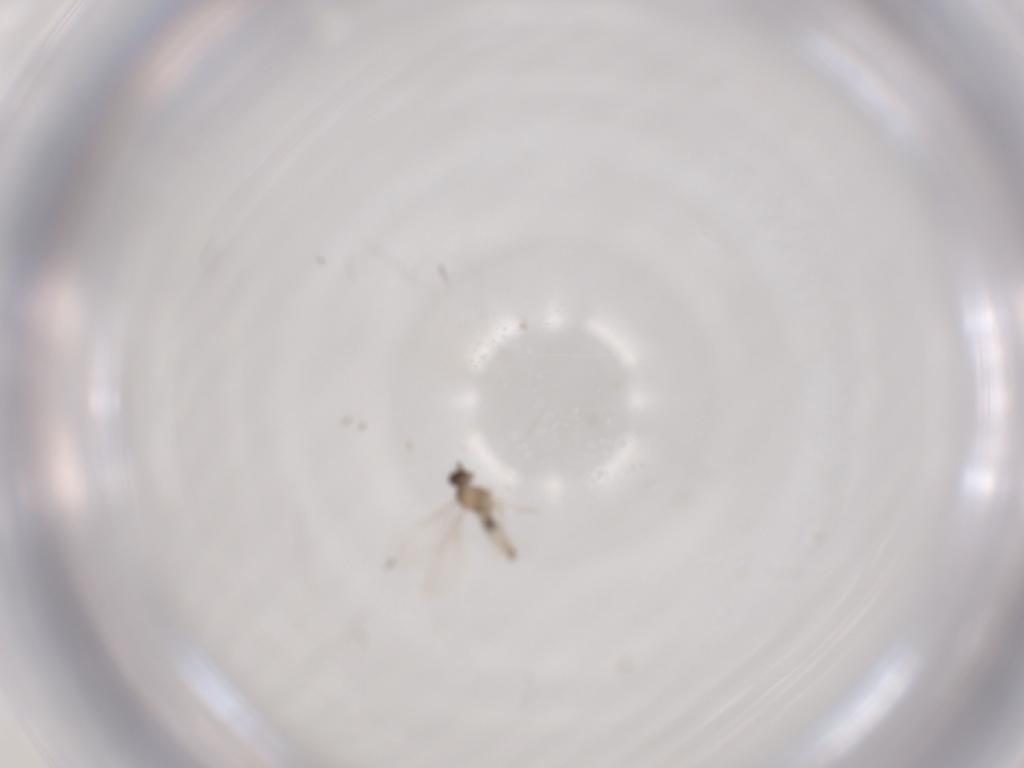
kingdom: Animalia
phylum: Arthropoda
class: Insecta
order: Diptera
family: Cecidomyiidae
